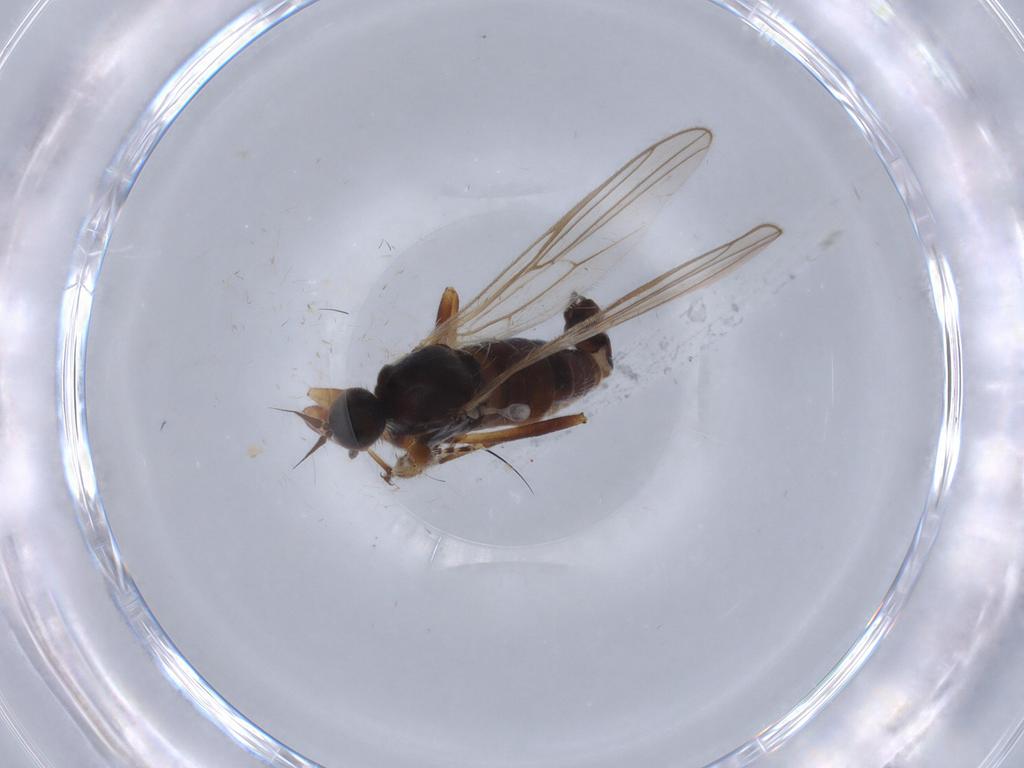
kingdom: Animalia
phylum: Arthropoda
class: Insecta
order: Diptera
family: Hybotidae
